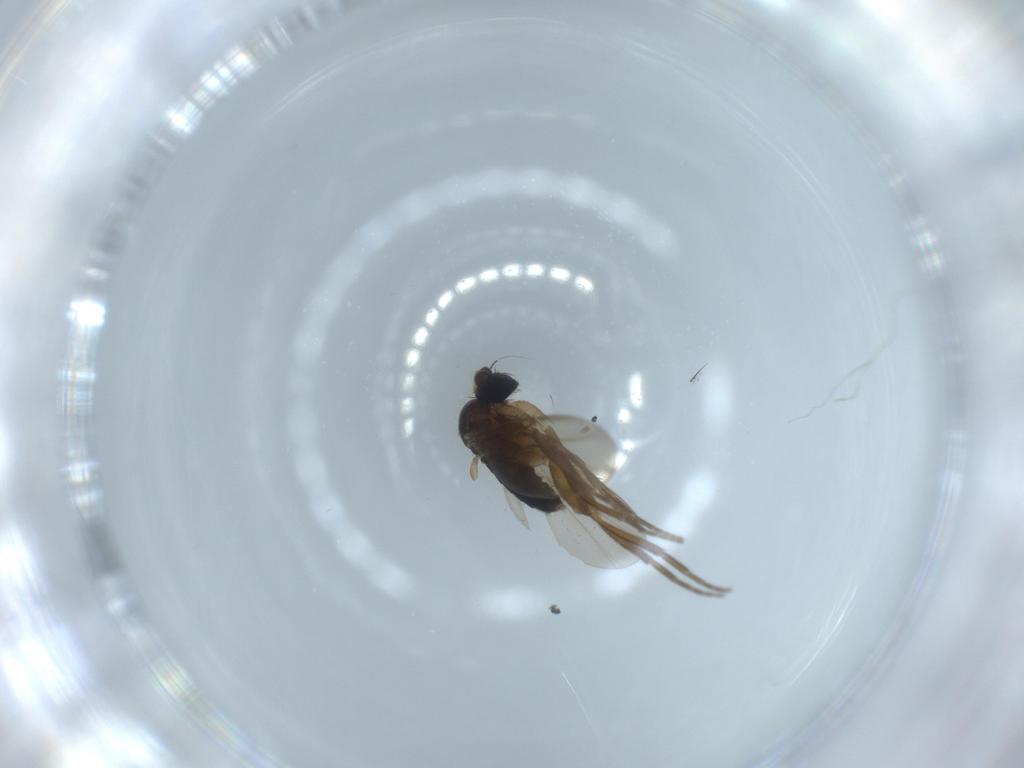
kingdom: Animalia
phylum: Arthropoda
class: Insecta
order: Diptera
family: Phoridae
